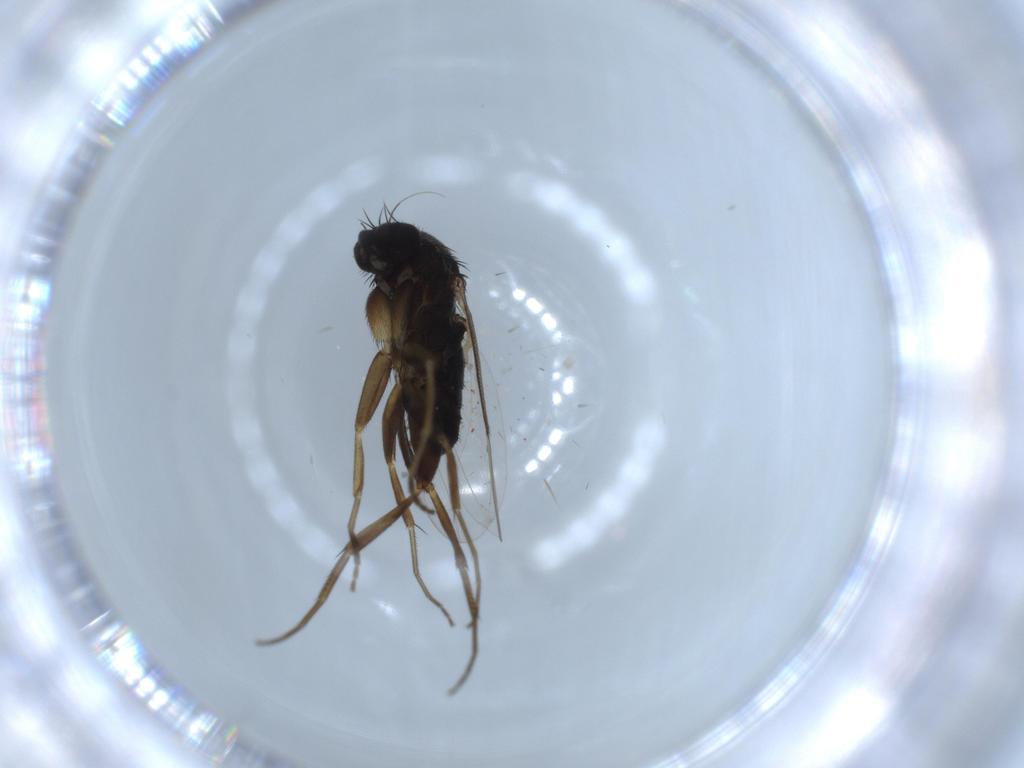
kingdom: Animalia
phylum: Arthropoda
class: Insecta
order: Diptera
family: Phoridae
